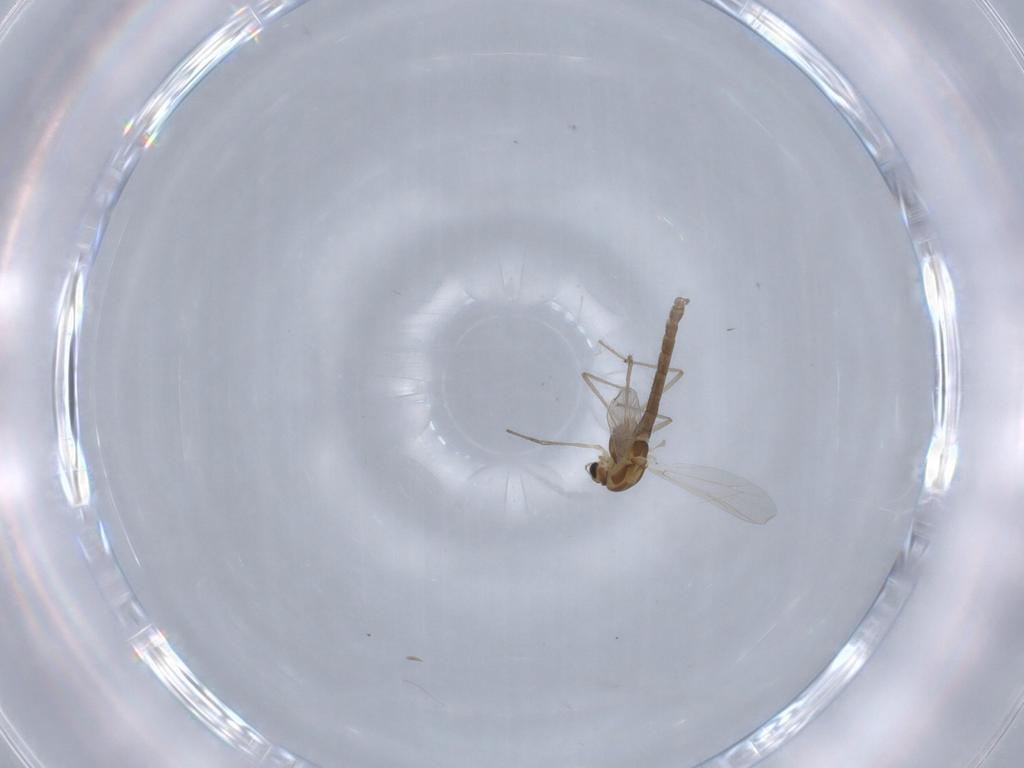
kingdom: Animalia
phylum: Arthropoda
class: Insecta
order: Diptera
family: Chironomidae
